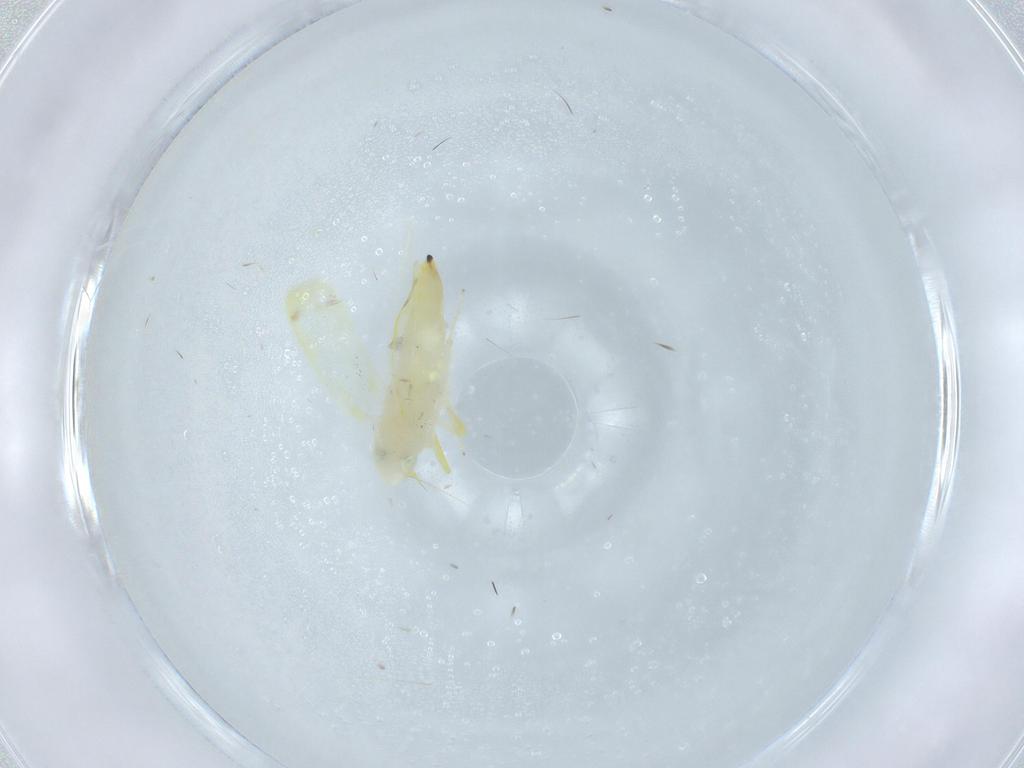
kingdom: Animalia
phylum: Arthropoda
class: Insecta
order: Hemiptera
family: Cicadellidae
